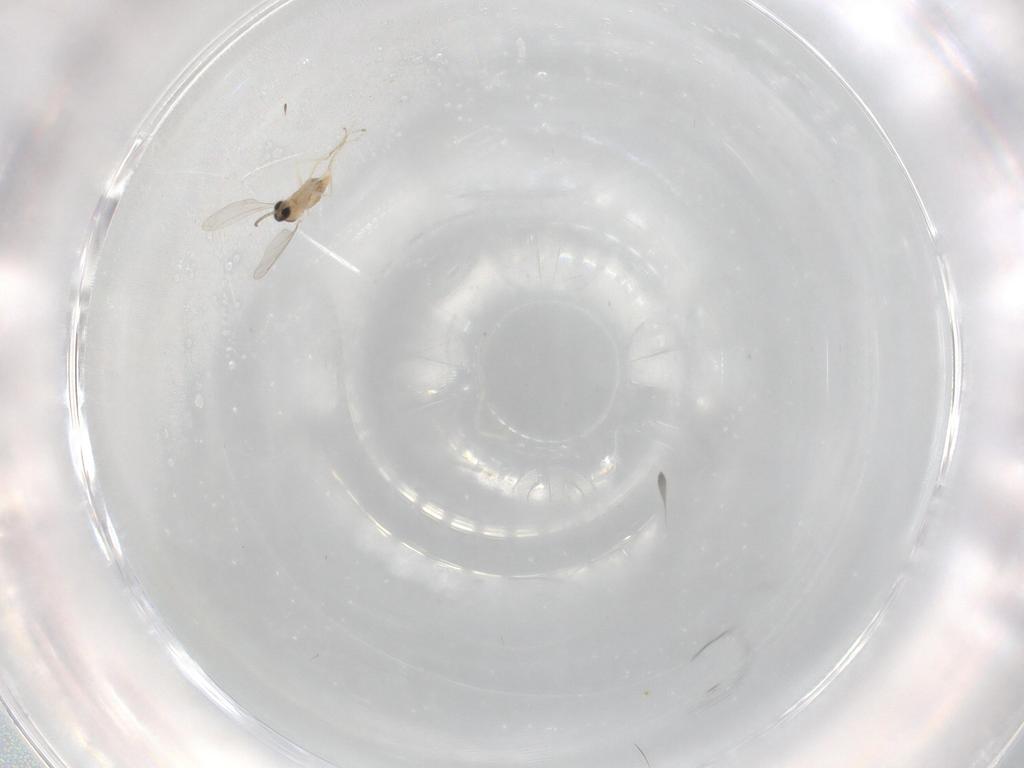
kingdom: Animalia
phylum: Arthropoda
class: Insecta
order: Diptera
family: Cecidomyiidae
